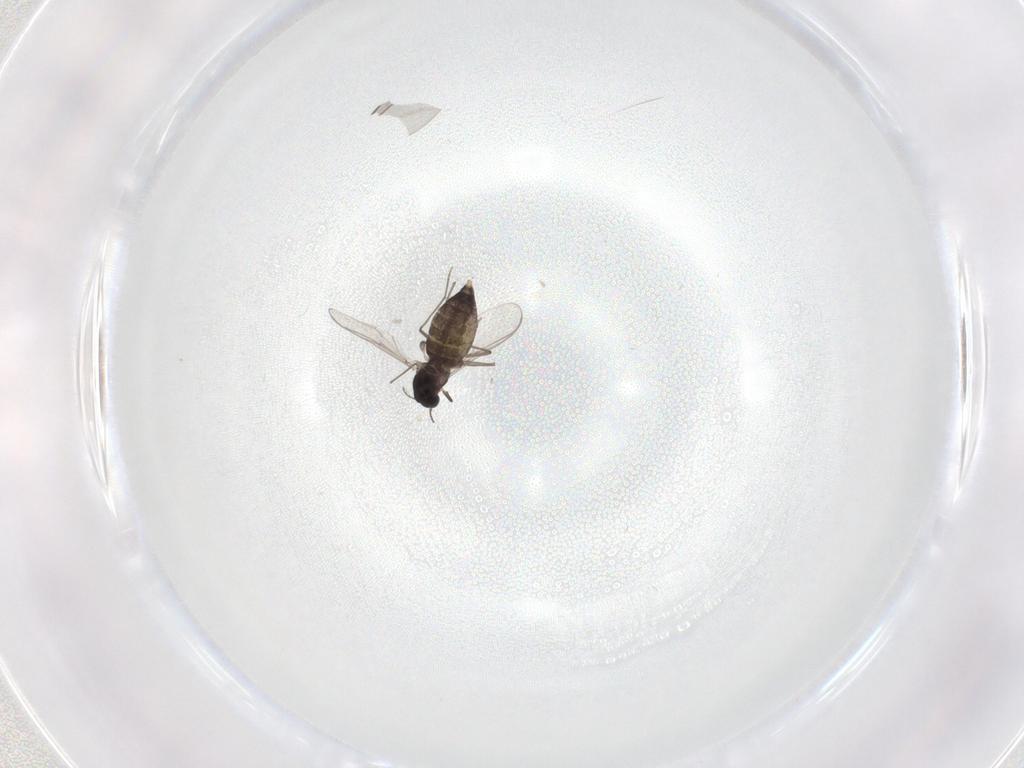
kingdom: Animalia
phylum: Arthropoda
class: Insecta
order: Diptera
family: Chironomidae
